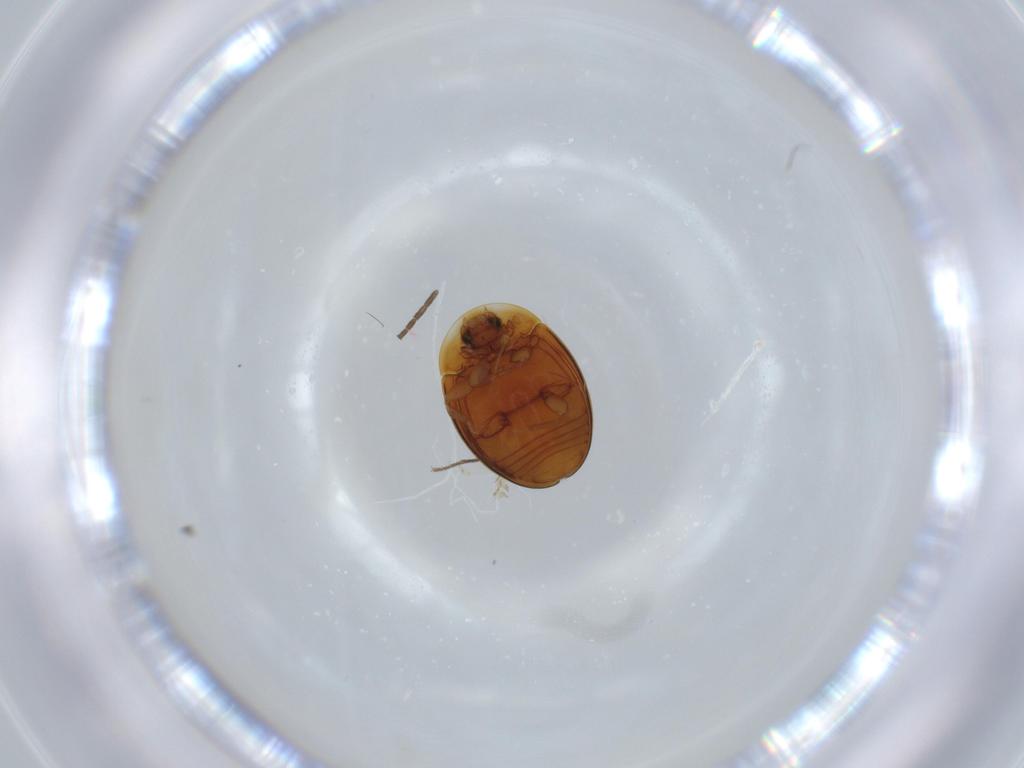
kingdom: Animalia
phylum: Arthropoda
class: Insecta
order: Coleoptera
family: Corylophidae
